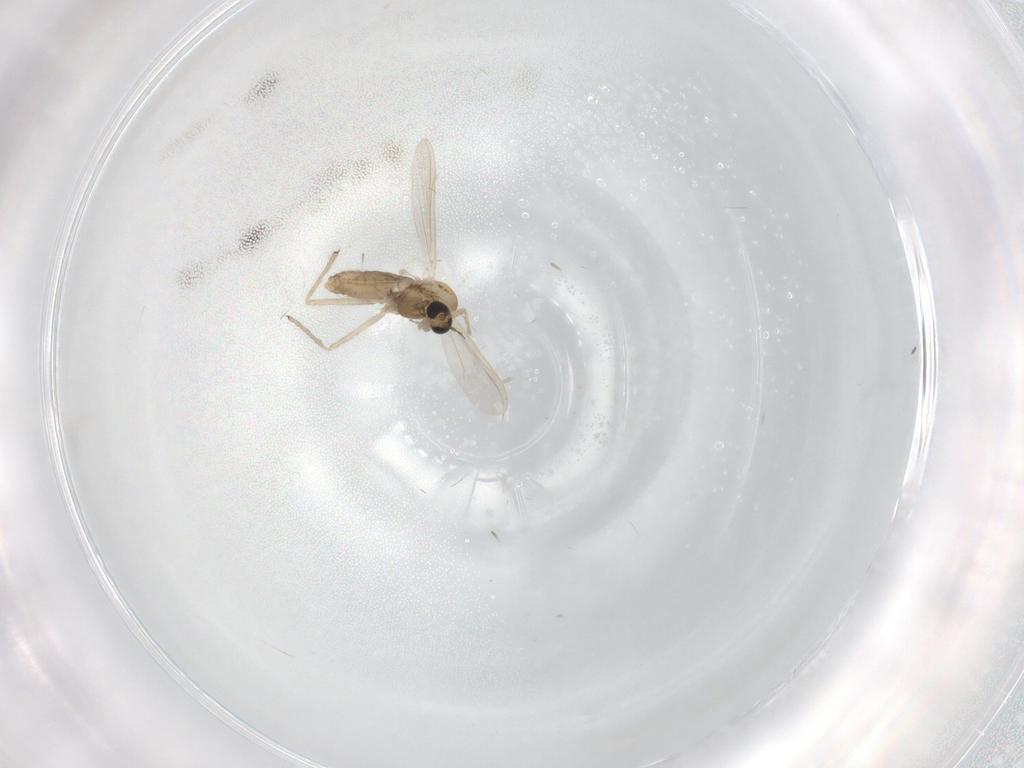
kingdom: Animalia
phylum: Arthropoda
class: Insecta
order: Diptera
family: Chironomidae
